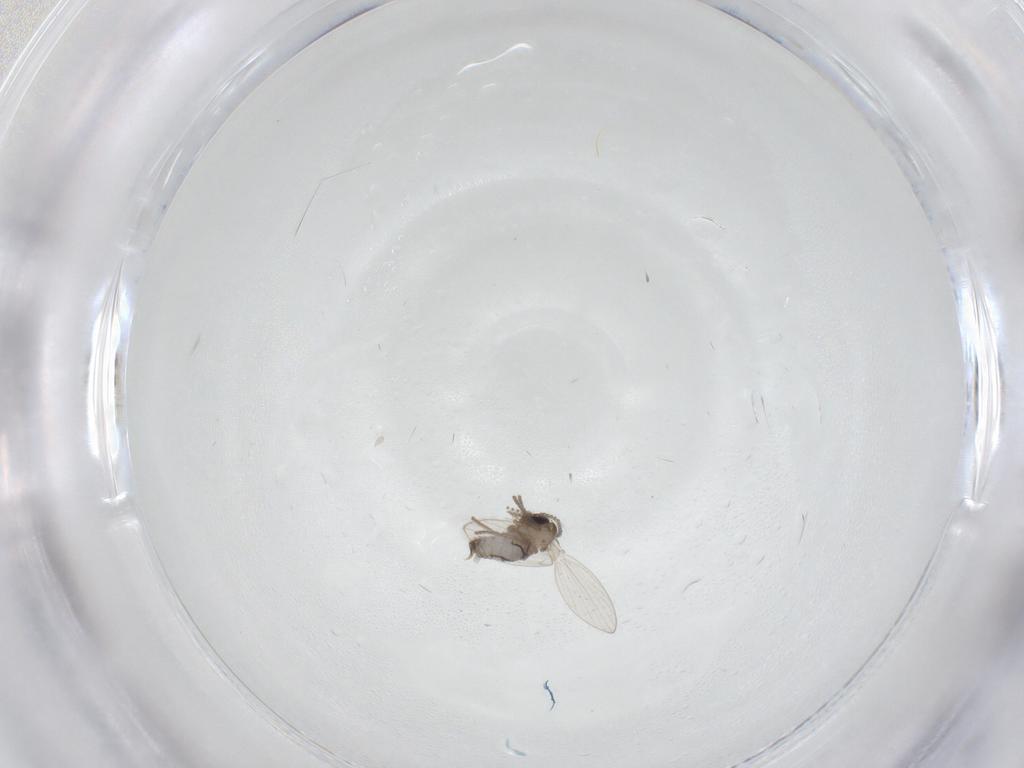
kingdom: Animalia
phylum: Arthropoda
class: Insecta
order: Diptera
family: Psychodidae
